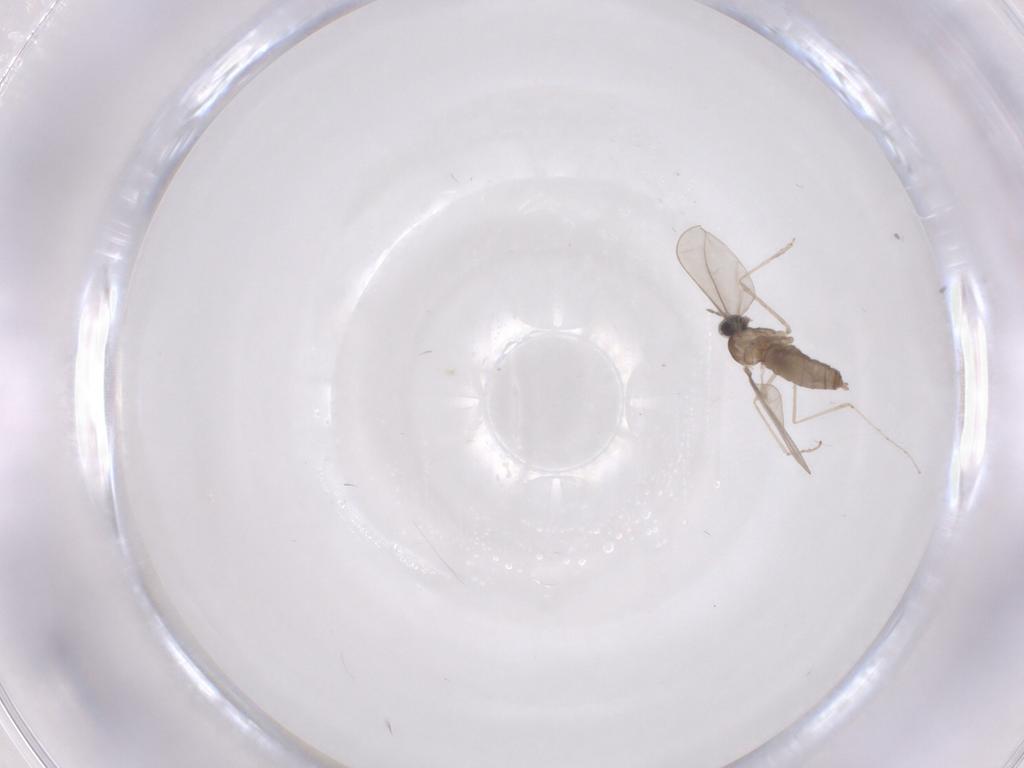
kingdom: Animalia
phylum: Arthropoda
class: Insecta
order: Diptera
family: Cecidomyiidae
